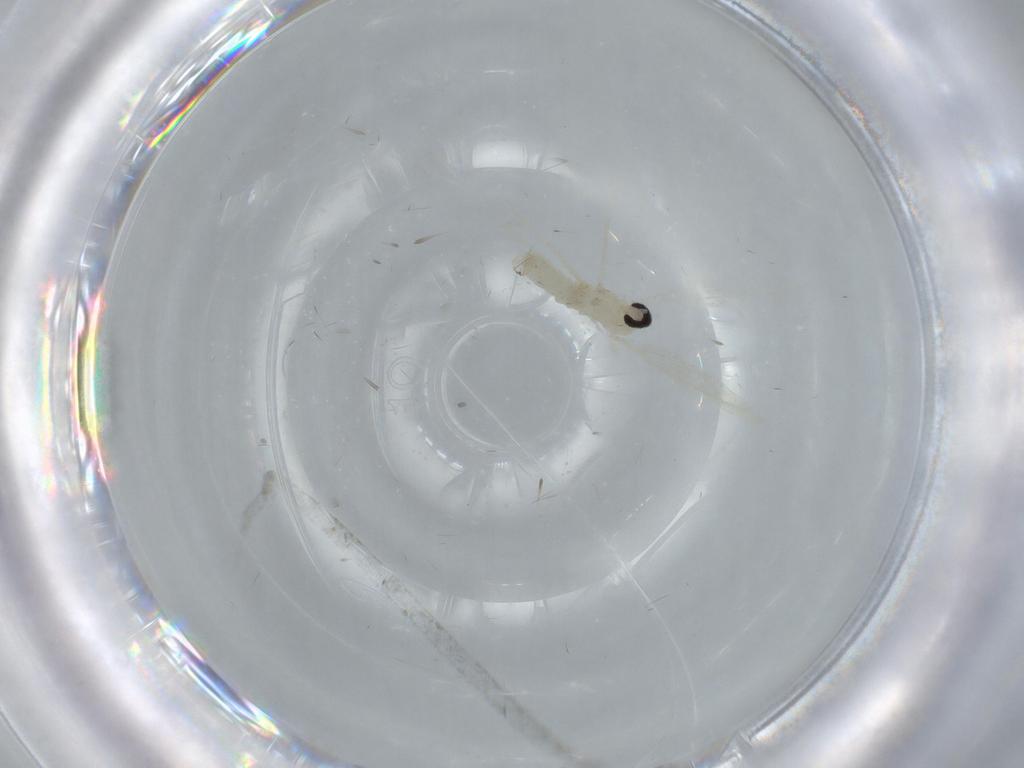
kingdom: Animalia
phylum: Arthropoda
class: Insecta
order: Diptera
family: Cecidomyiidae
